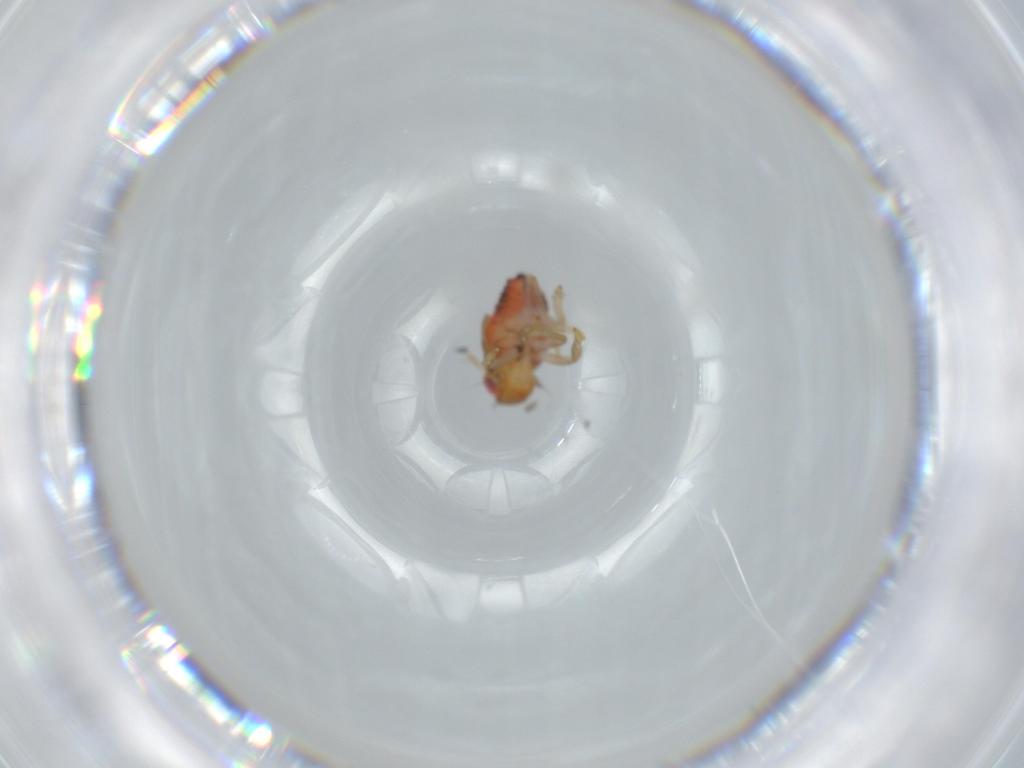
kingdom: Animalia
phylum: Arthropoda
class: Insecta
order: Hemiptera
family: Issidae
